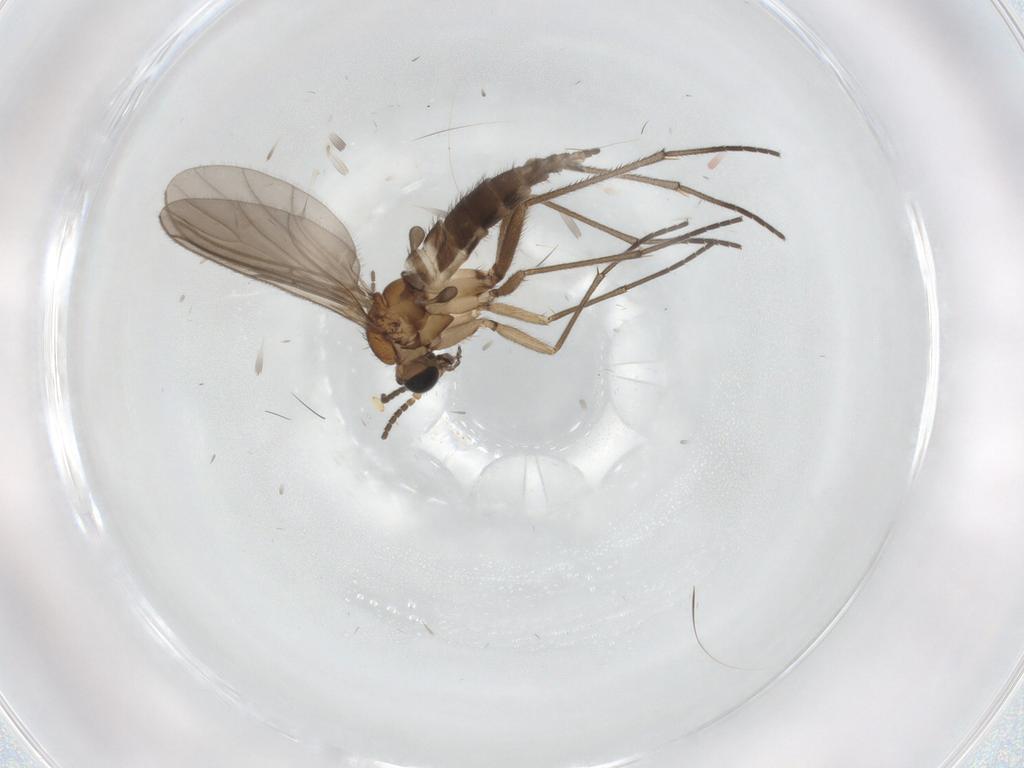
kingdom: Animalia
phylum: Arthropoda
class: Insecta
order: Diptera
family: Sciaridae
